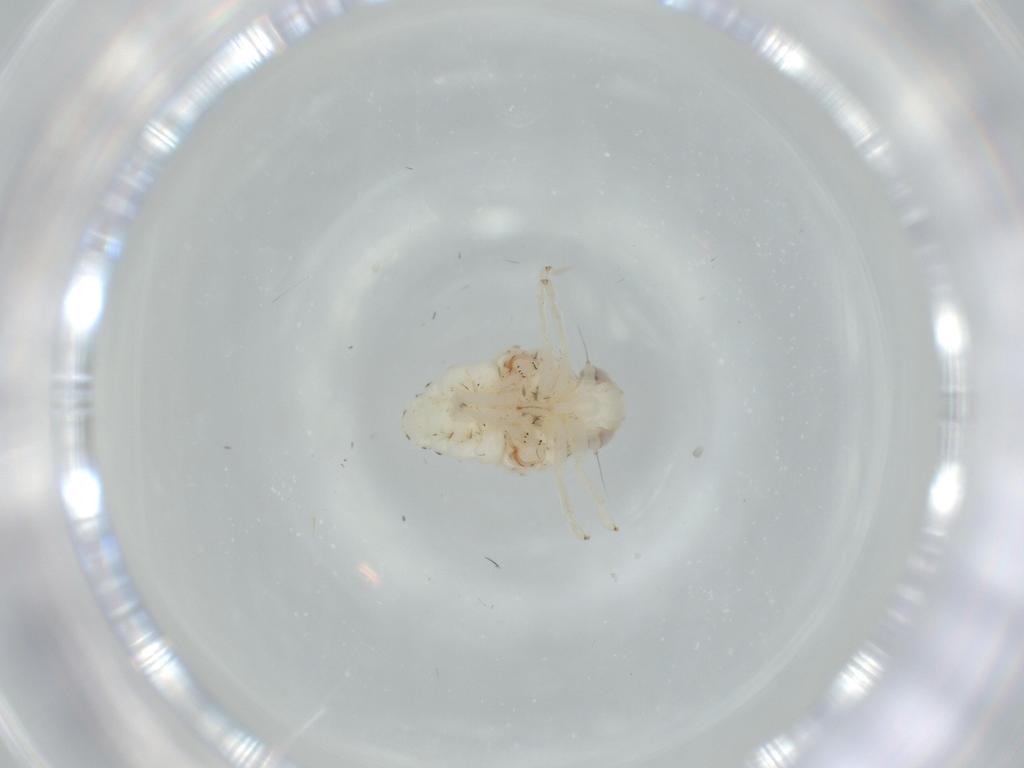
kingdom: Animalia
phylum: Arthropoda
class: Insecta
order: Hemiptera
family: Nogodinidae
